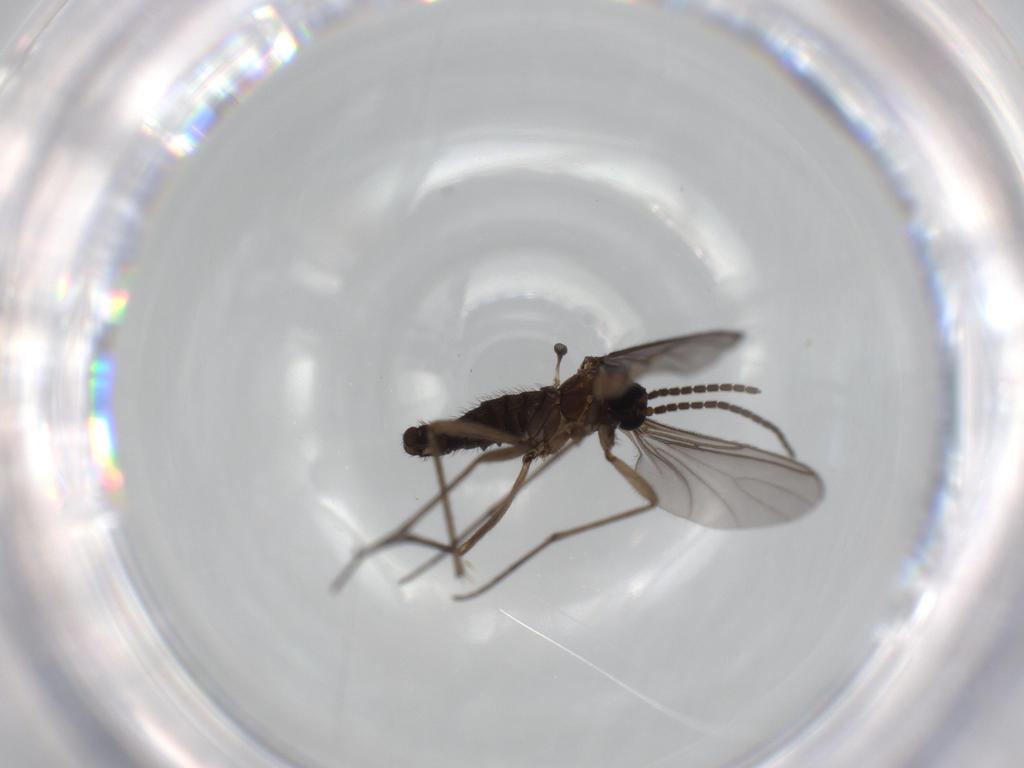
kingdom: Animalia
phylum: Arthropoda
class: Insecta
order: Diptera
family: Sciaridae
